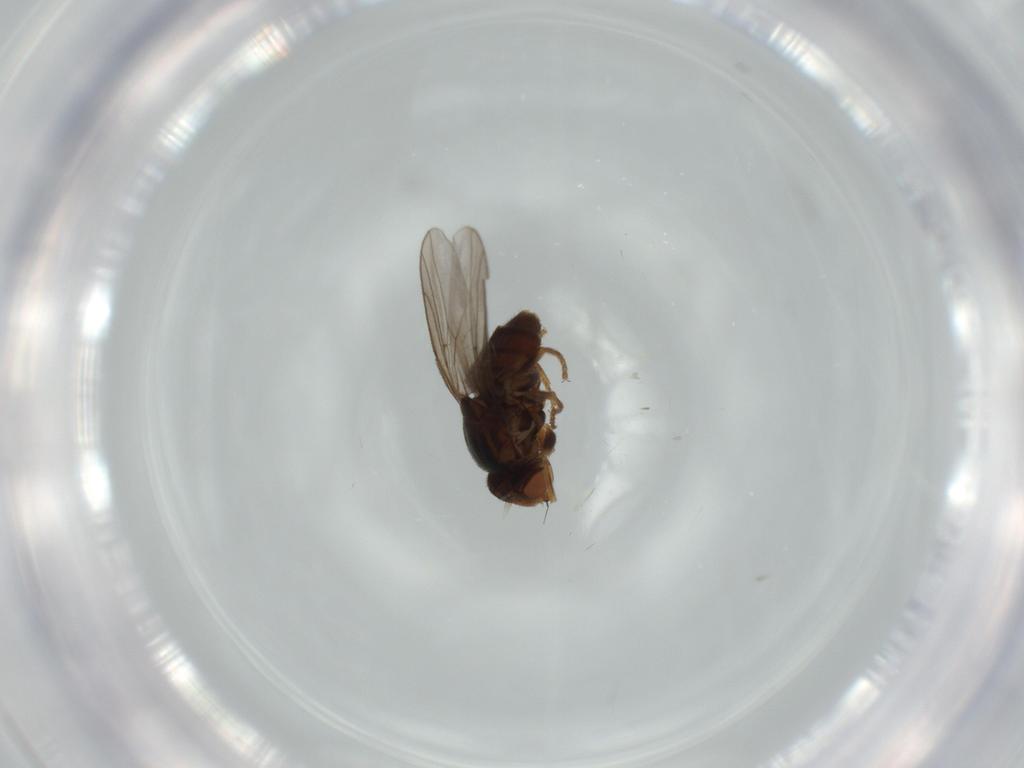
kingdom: Animalia
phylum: Arthropoda
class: Insecta
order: Diptera
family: Chloropidae
